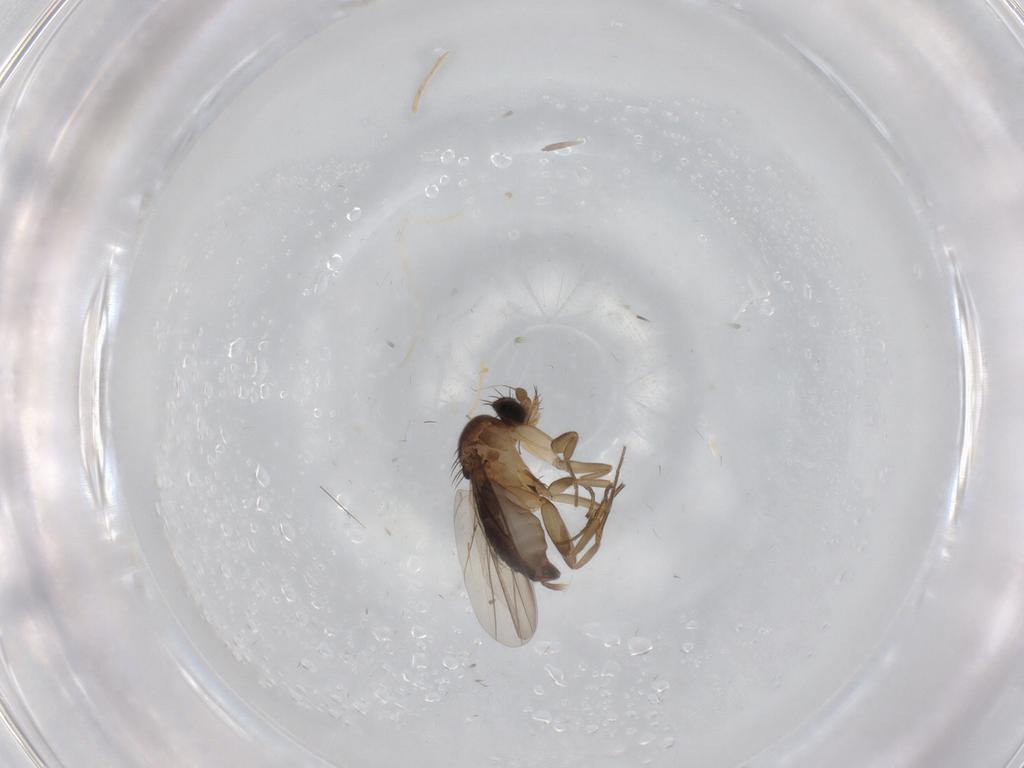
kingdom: Animalia
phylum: Arthropoda
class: Insecta
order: Diptera
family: Phoridae
